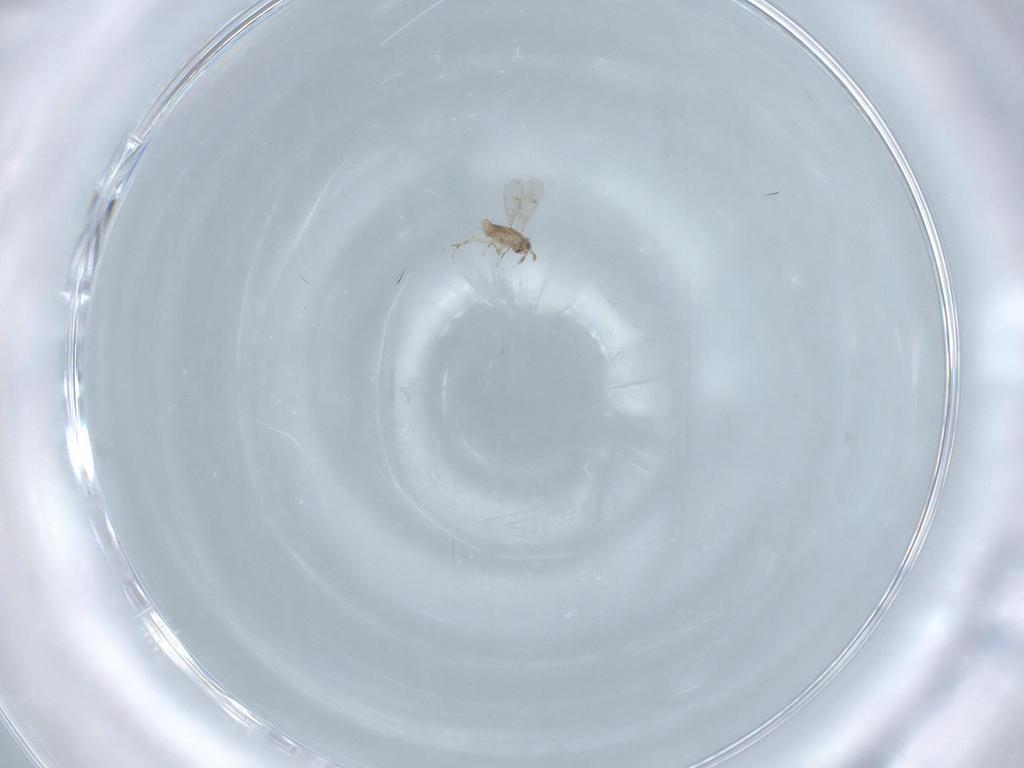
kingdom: Animalia
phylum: Arthropoda
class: Insecta
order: Hymenoptera
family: Aphelinidae
